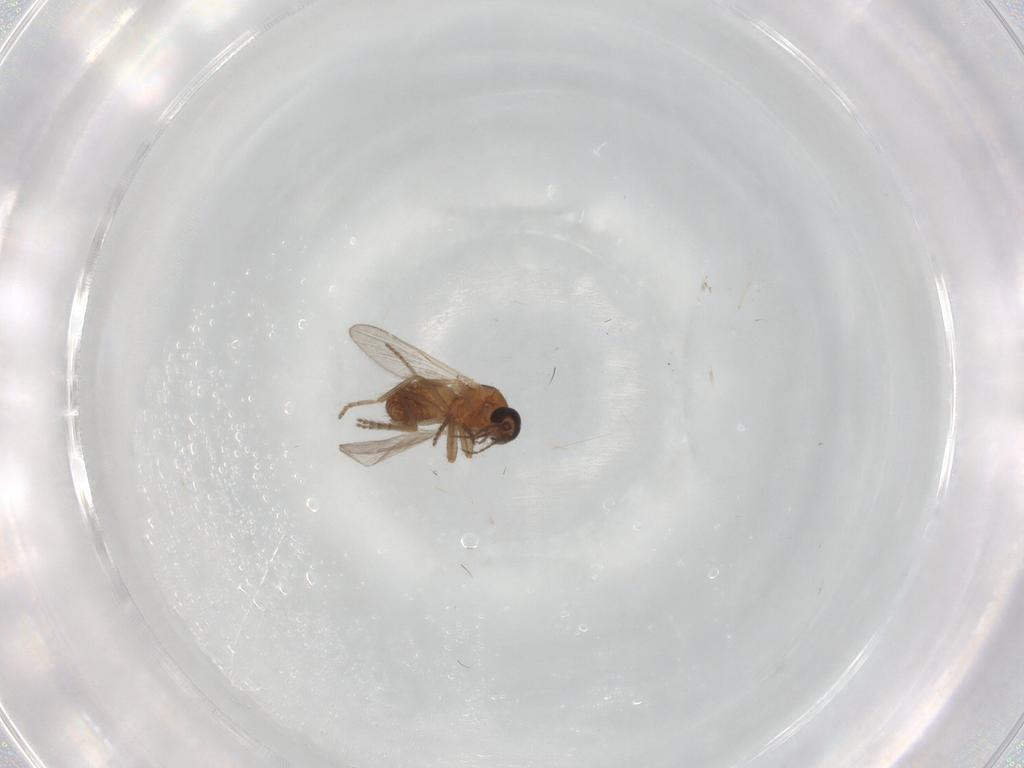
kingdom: Animalia
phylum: Arthropoda
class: Insecta
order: Diptera
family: Ceratopogonidae
